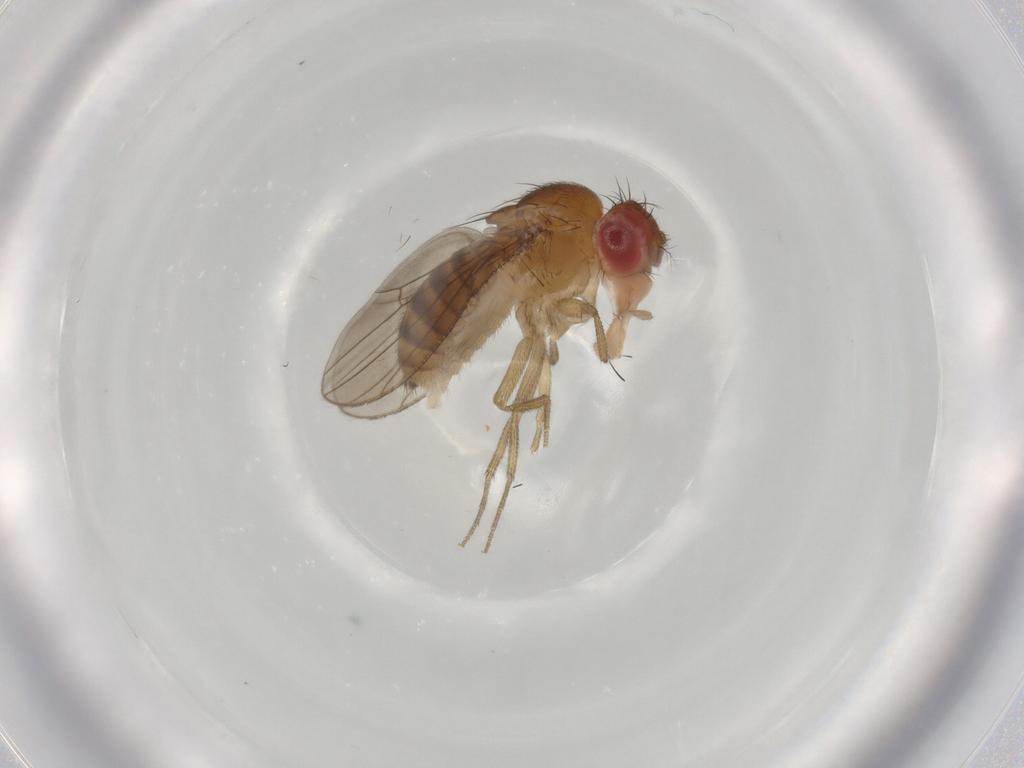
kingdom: Animalia
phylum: Arthropoda
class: Insecta
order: Diptera
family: Drosophilidae
